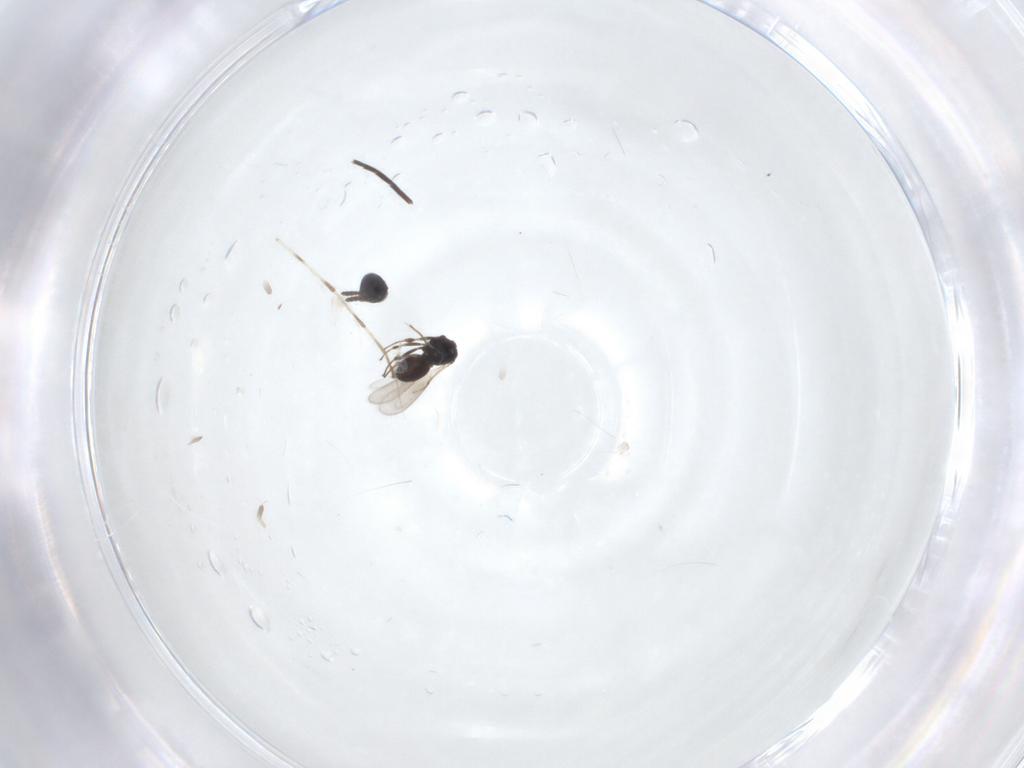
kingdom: Animalia
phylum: Arthropoda
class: Insecta
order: Hymenoptera
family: Scelionidae
